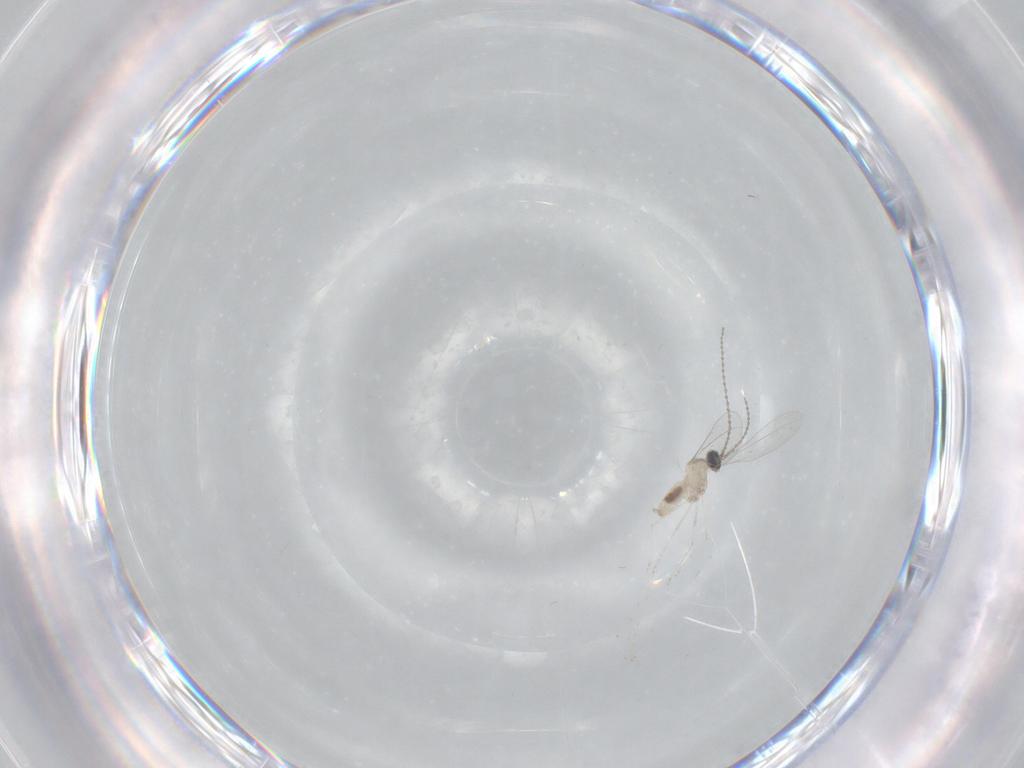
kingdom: Animalia
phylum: Arthropoda
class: Insecta
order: Diptera
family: Cecidomyiidae
